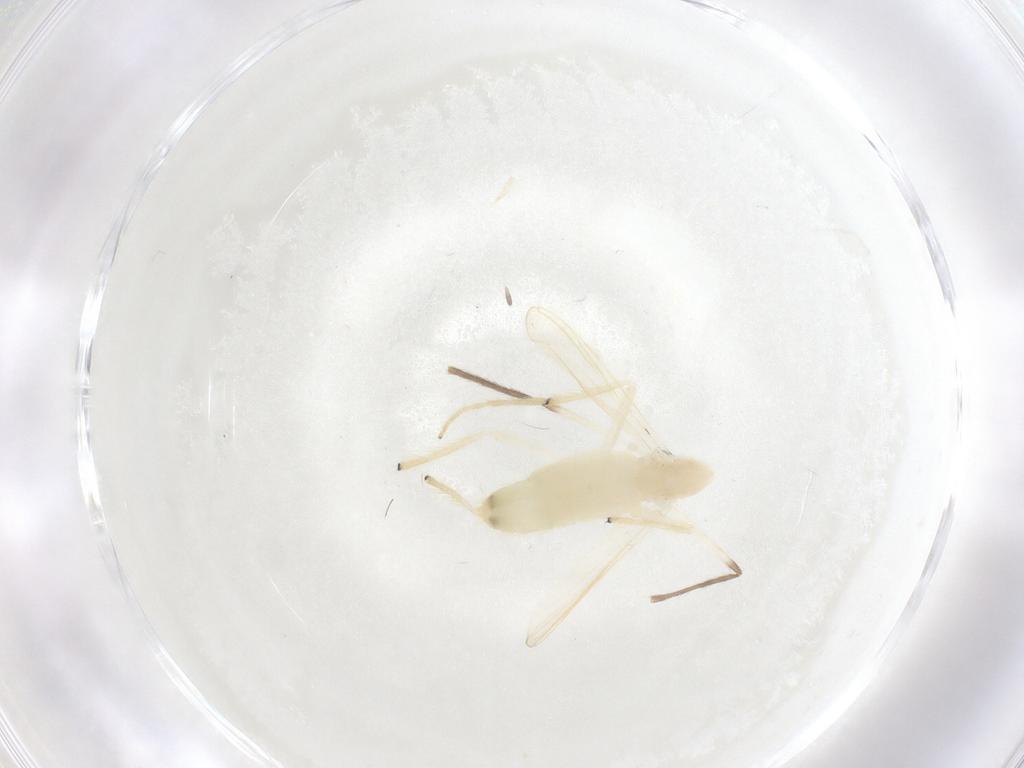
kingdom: Animalia
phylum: Arthropoda
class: Insecta
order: Diptera
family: Chironomidae
